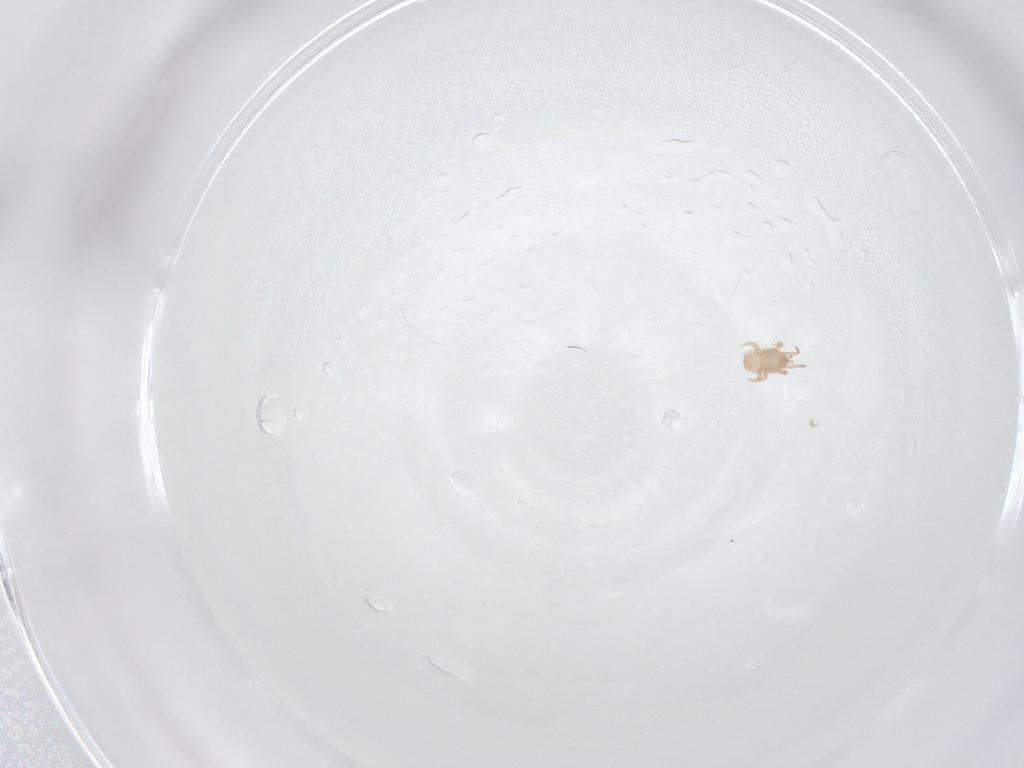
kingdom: Animalia
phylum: Arthropoda
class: Arachnida
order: Mesostigmata
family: Digamasellidae
